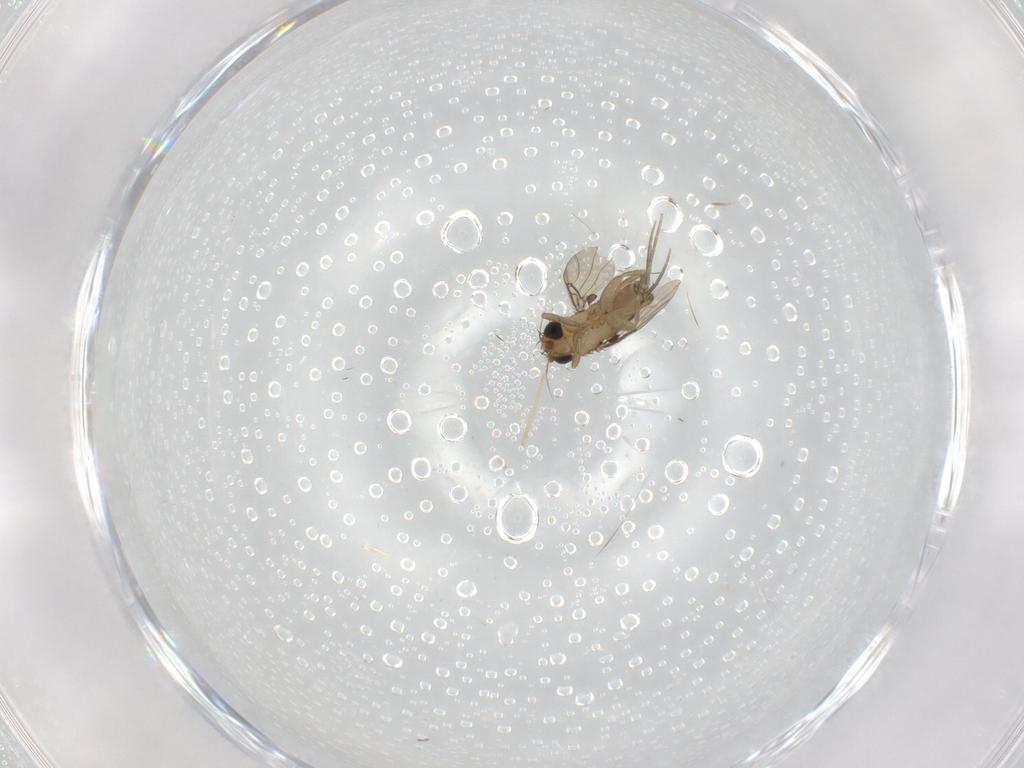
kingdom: Animalia
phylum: Arthropoda
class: Insecta
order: Diptera
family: Phoridae
